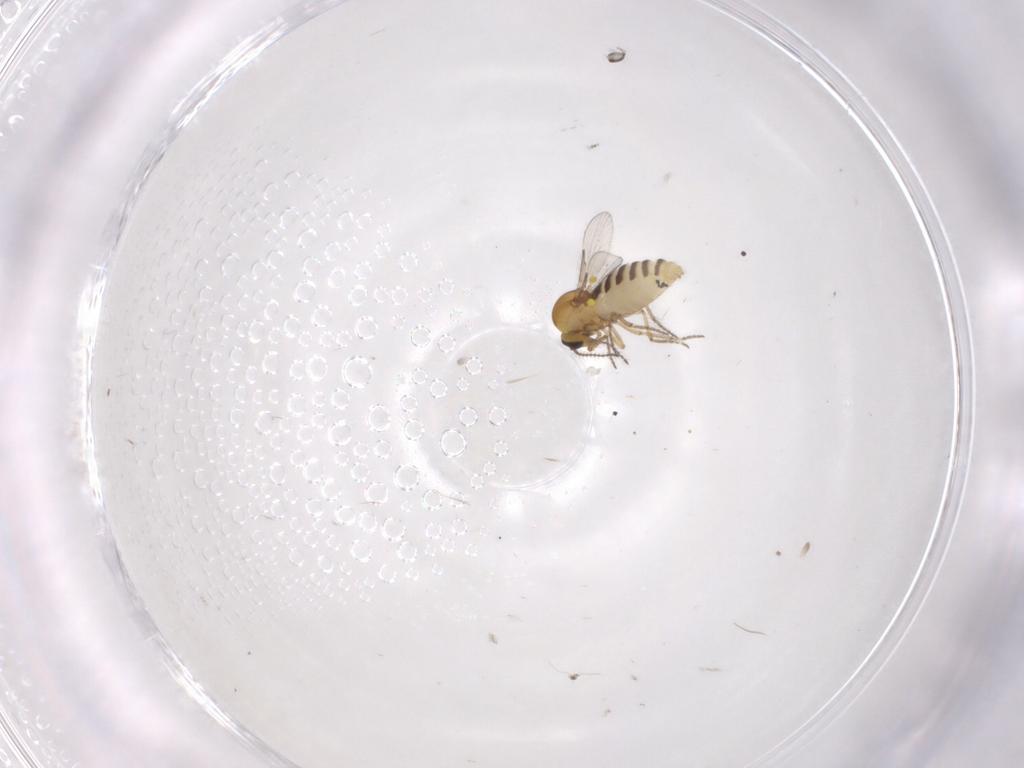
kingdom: Animalia
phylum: Arthropoda
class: Insecta
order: Diptera
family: Ceratopogonidae
